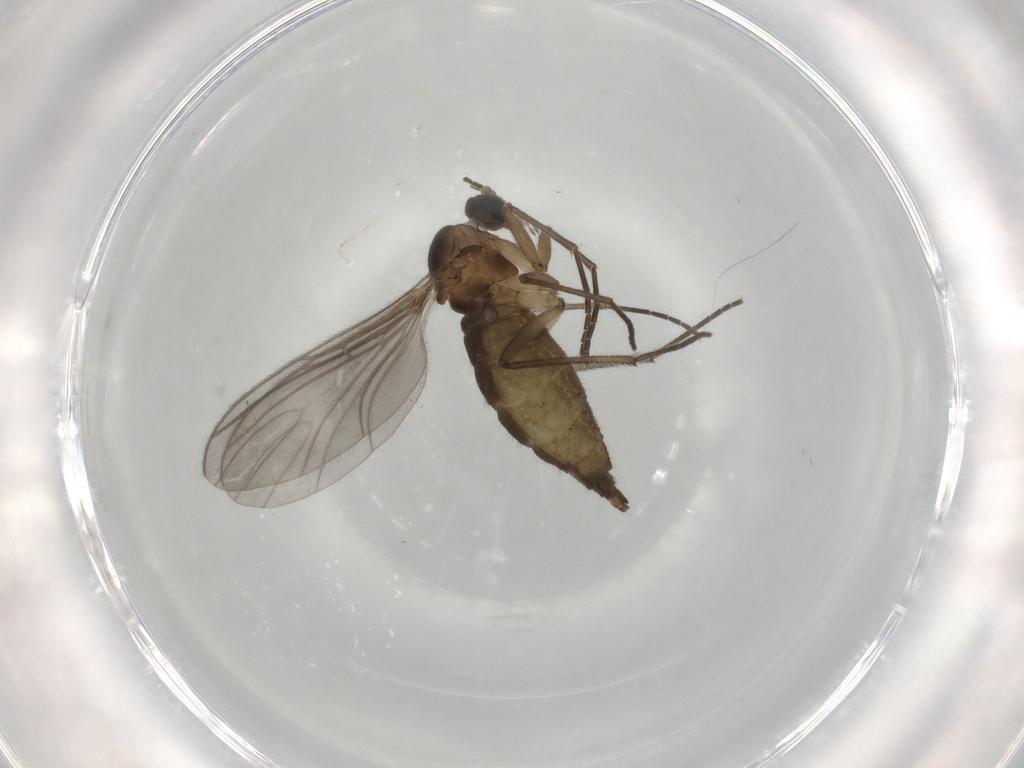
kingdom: Animalia
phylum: Arthropoda
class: Insecta
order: Diptera
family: Sciaridae
